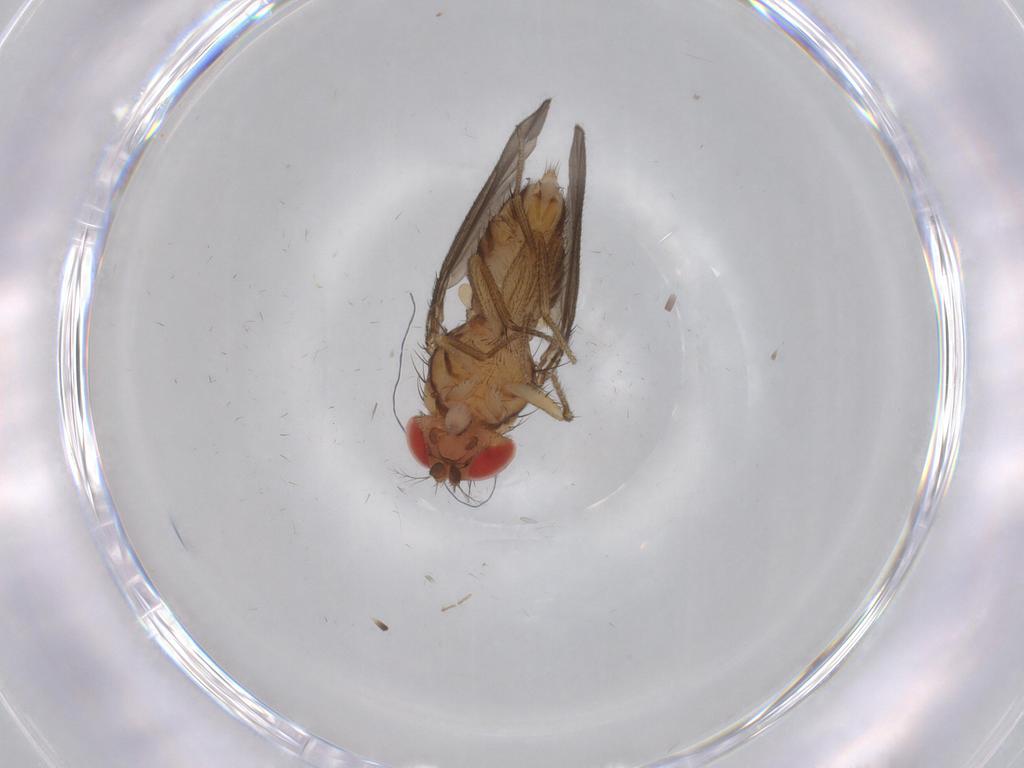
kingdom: Animalia
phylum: Arthropoda
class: Insecta
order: Diptera
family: Drosophilidae
